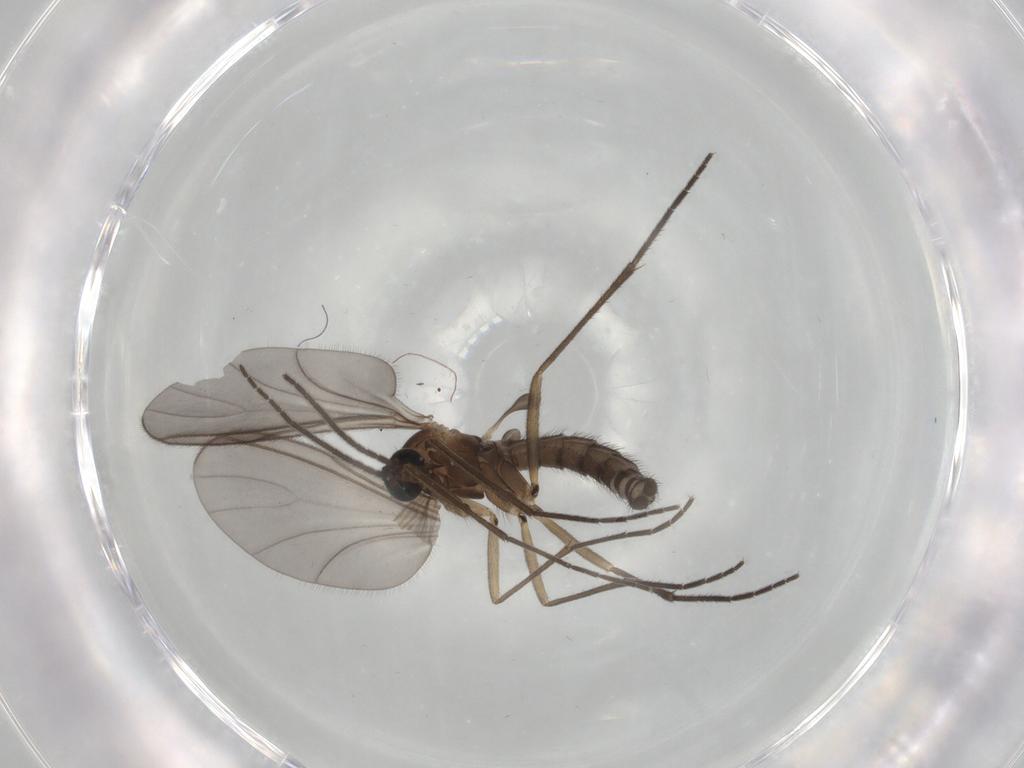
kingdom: Animalia
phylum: Arthropoda
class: Insecta
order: Diptera
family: Sciaridae
